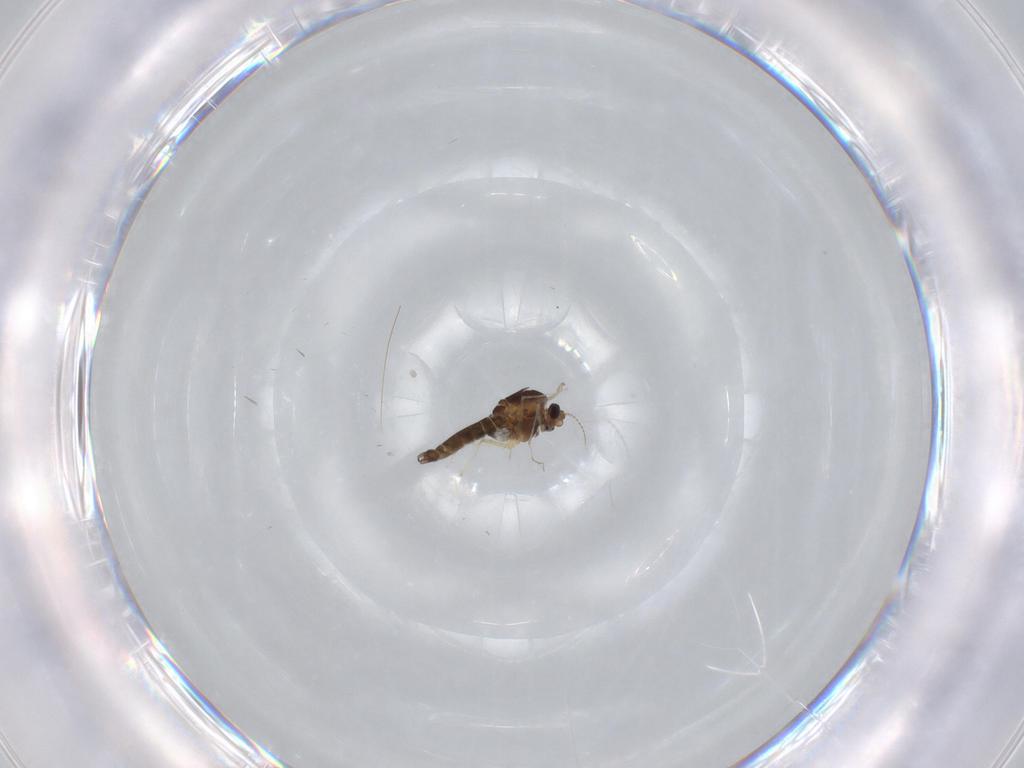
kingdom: Animalia
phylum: Arthropoda
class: Insecta
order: Diptera
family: Chironomidae
